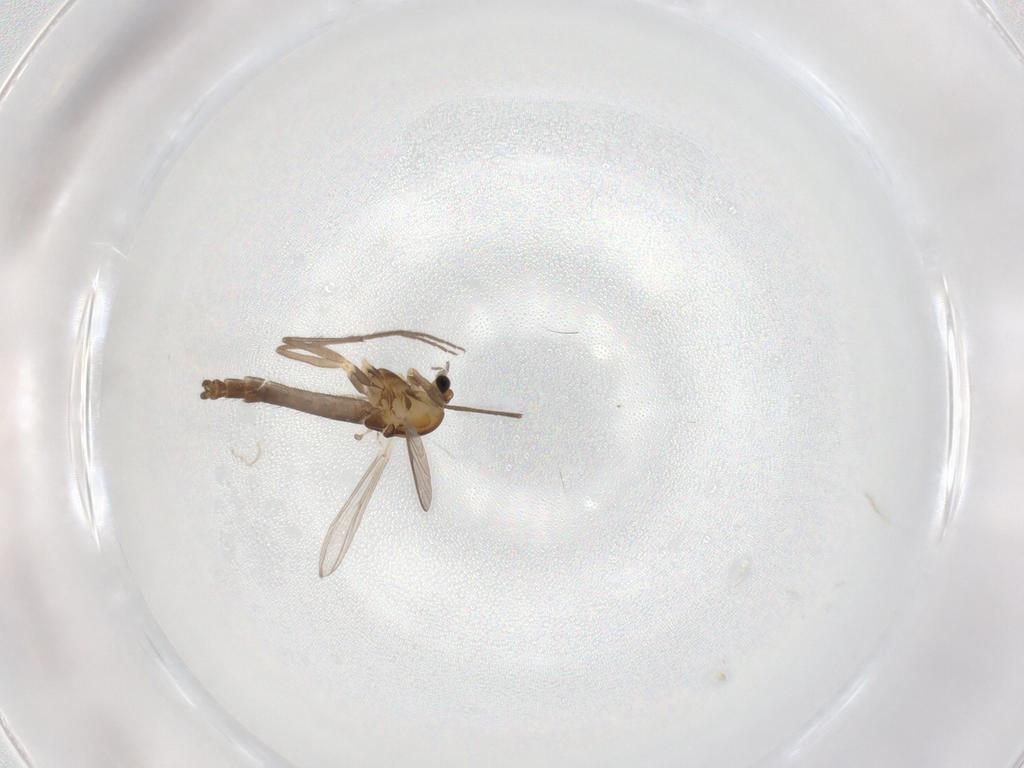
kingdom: Animalia
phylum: Arthropoda
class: Insecta
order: Diptera
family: Chironomidae
